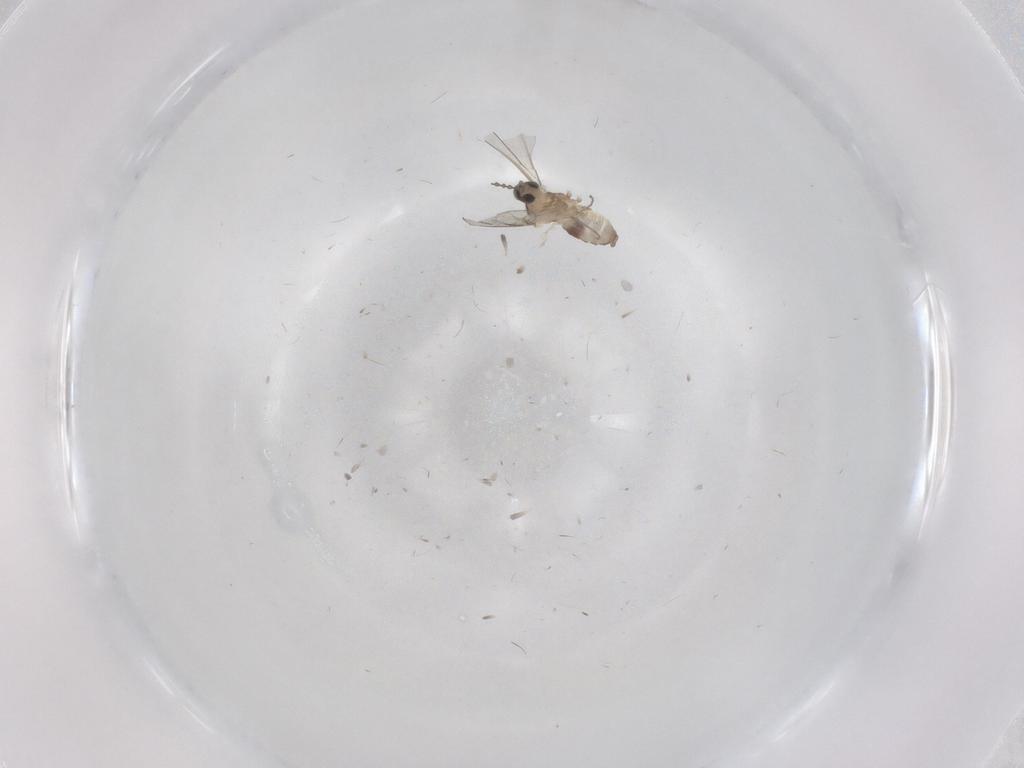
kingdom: Animalia
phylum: Arthropoda
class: Insecta
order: Diptera
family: Cecidomyiidae
